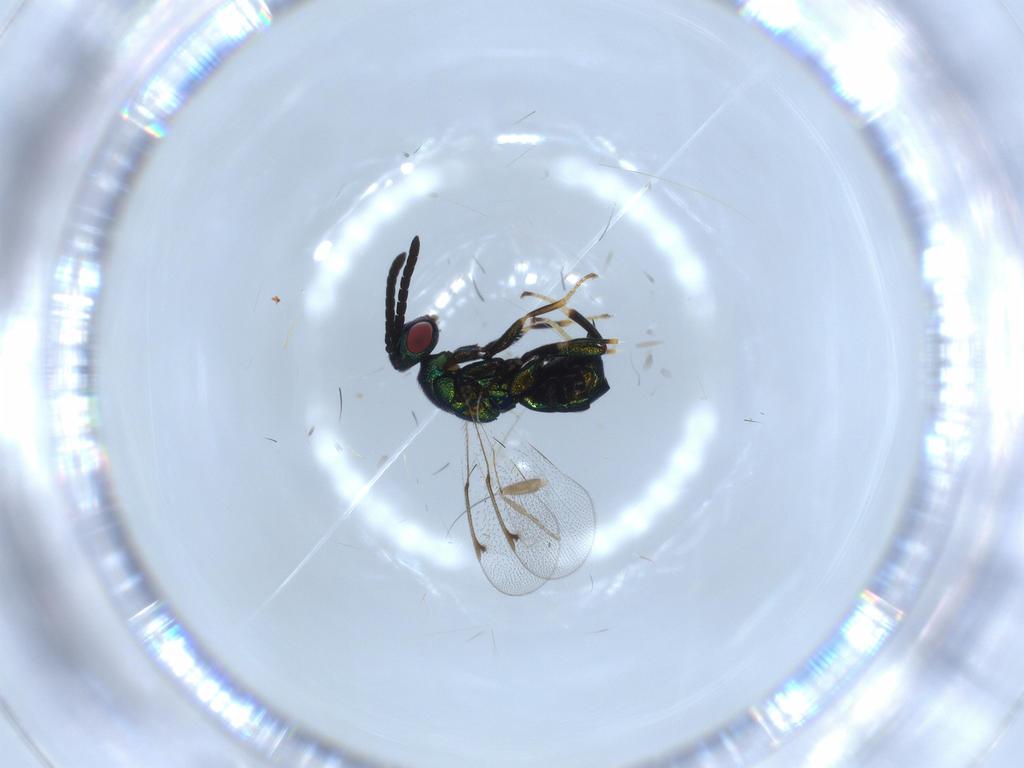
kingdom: Animalia
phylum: Arthropoda
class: Insecta
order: Hymenoptera
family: Torymidae
